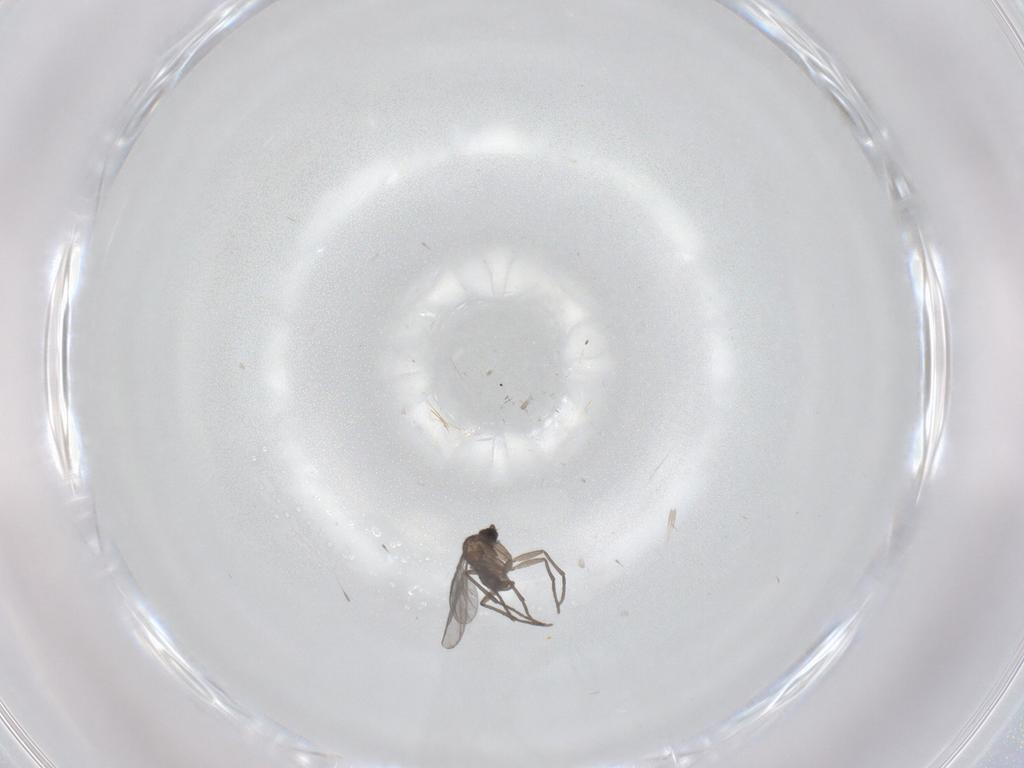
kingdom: Animalia
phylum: Arthropoda
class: Insecta
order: Diptera
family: Sciaridae
